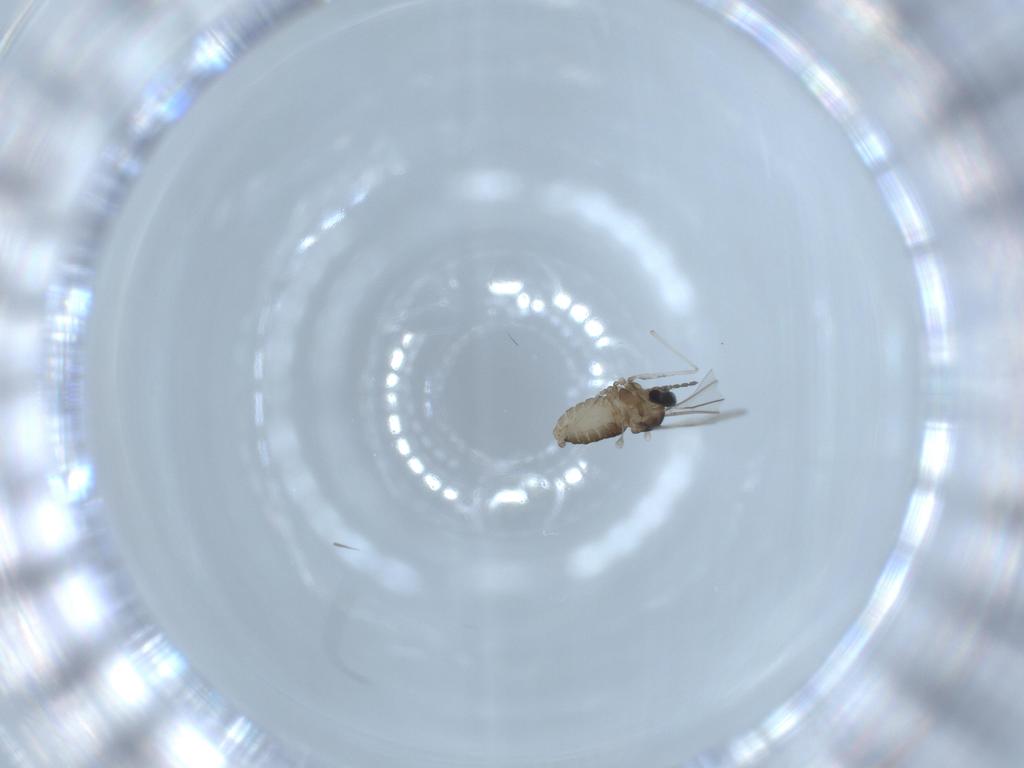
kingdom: Animalia
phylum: Arthropoda
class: Insecta
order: Diptera
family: Cecidomyiidae
